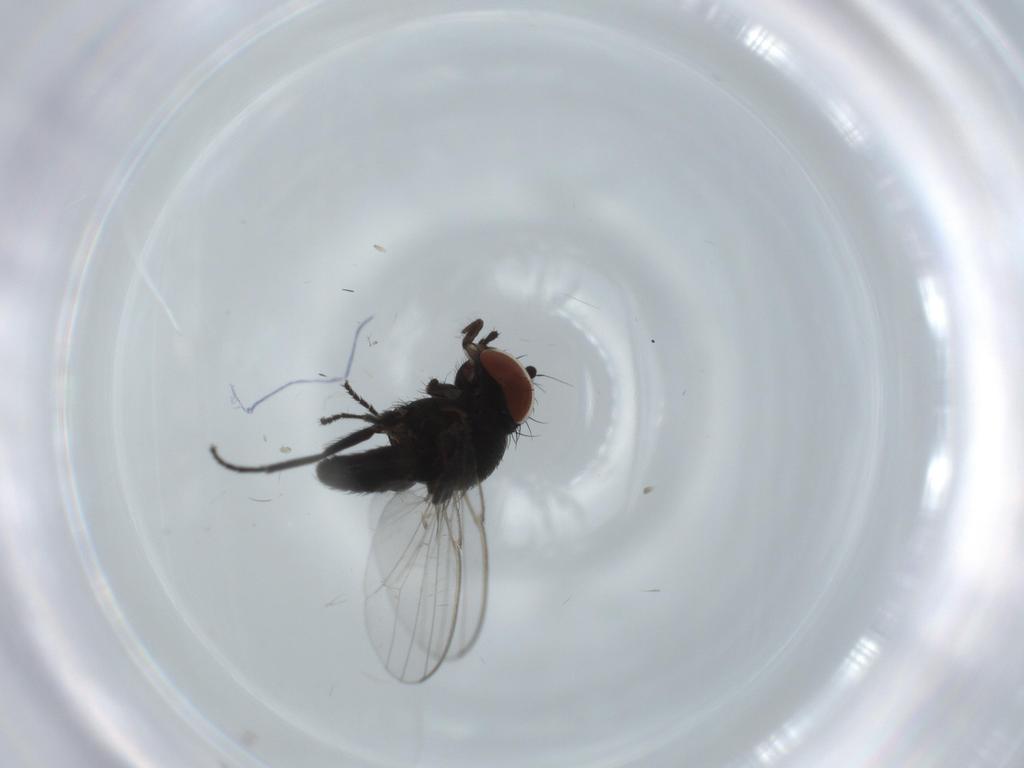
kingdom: Animalia
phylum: Arthropoda
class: Insecta
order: Diptera
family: Milichiidae
